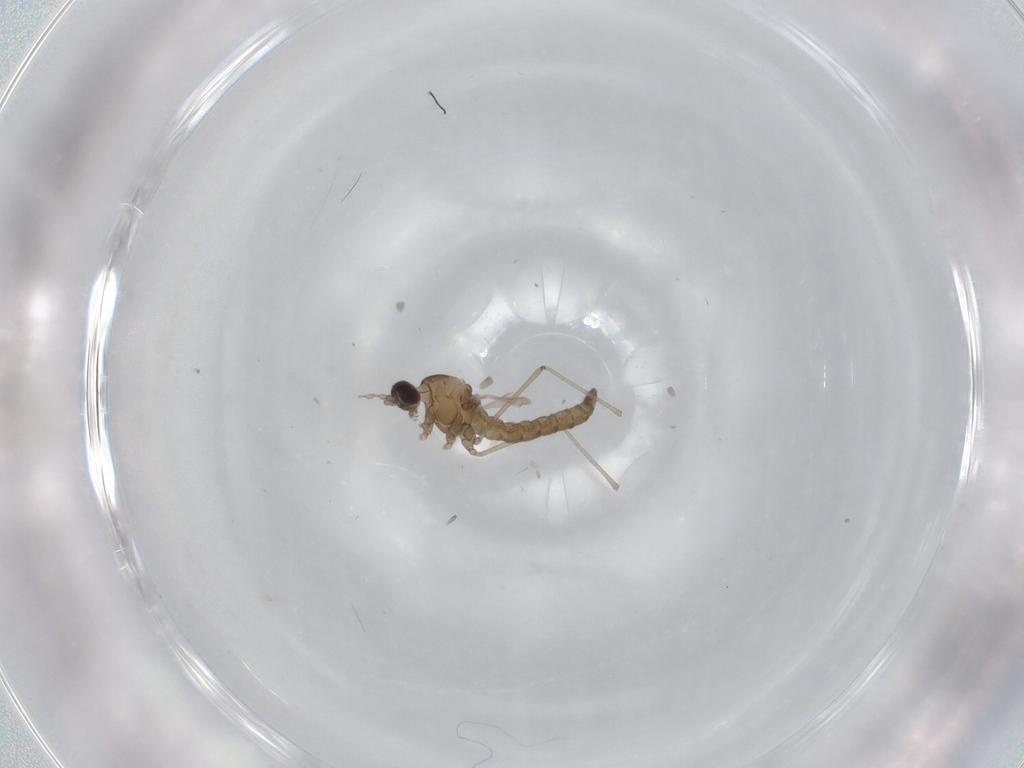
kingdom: Animalia
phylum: Arthropoda
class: Insecta
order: Diptera
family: Cecidomyiidae
